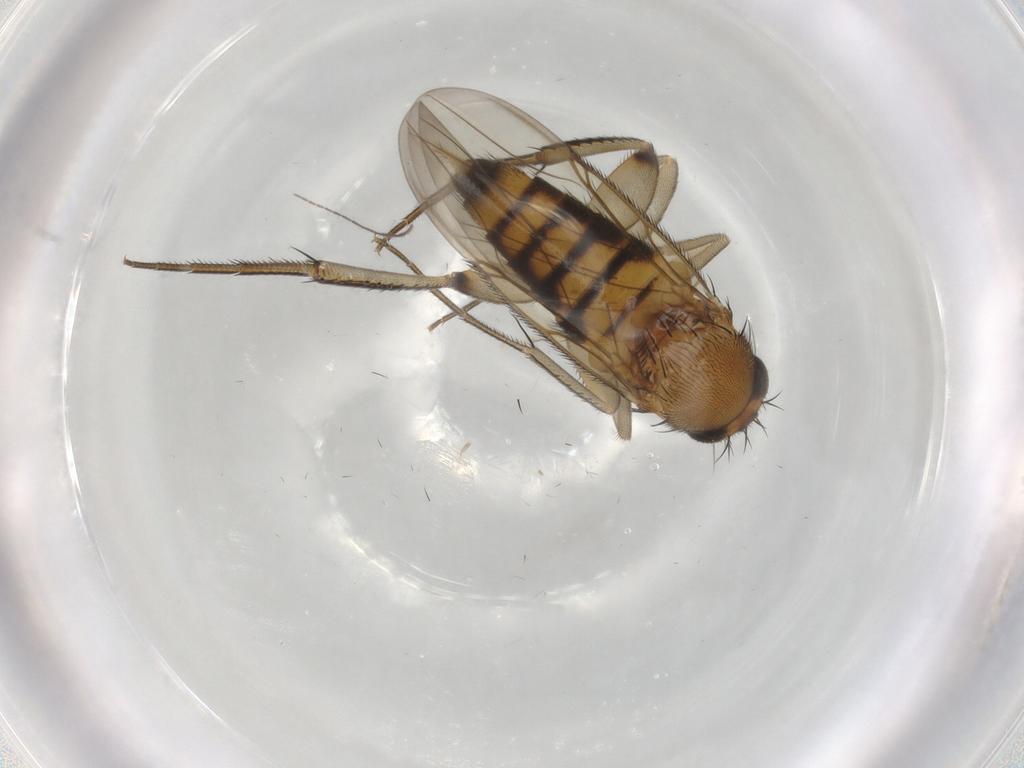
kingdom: Animalia
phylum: Arthropoda
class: Insecta
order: Diptera
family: Phoridae
